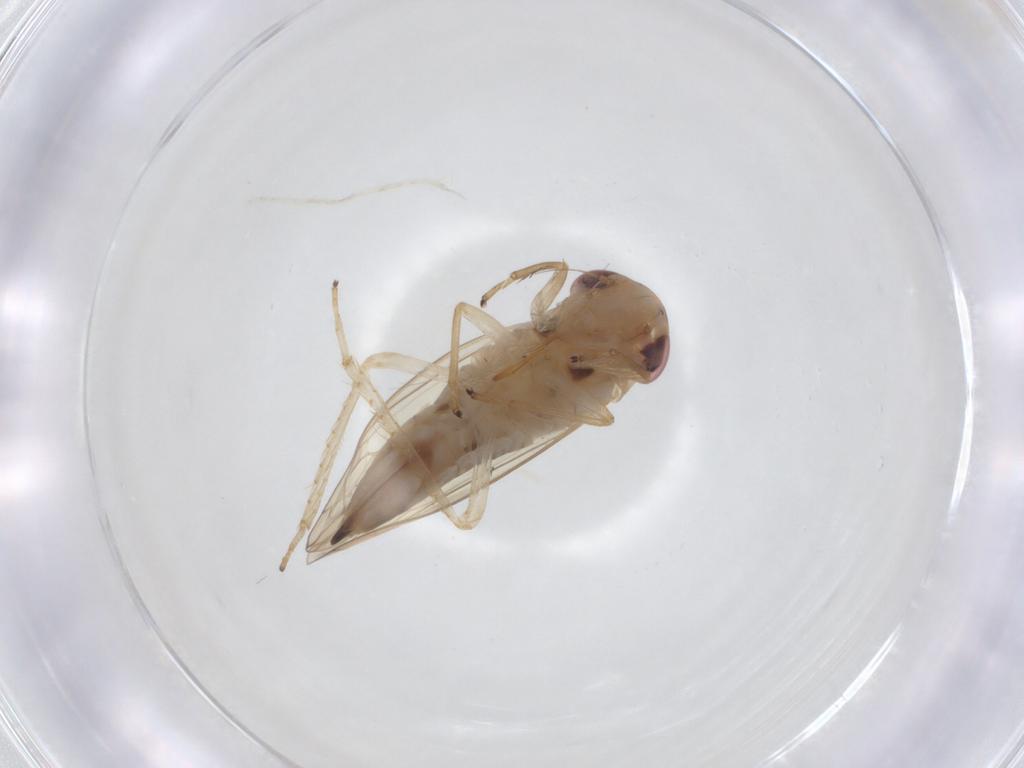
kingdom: Animalia
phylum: Arthropoda
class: Insecta
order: Hemiptera
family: Cicadellidae
